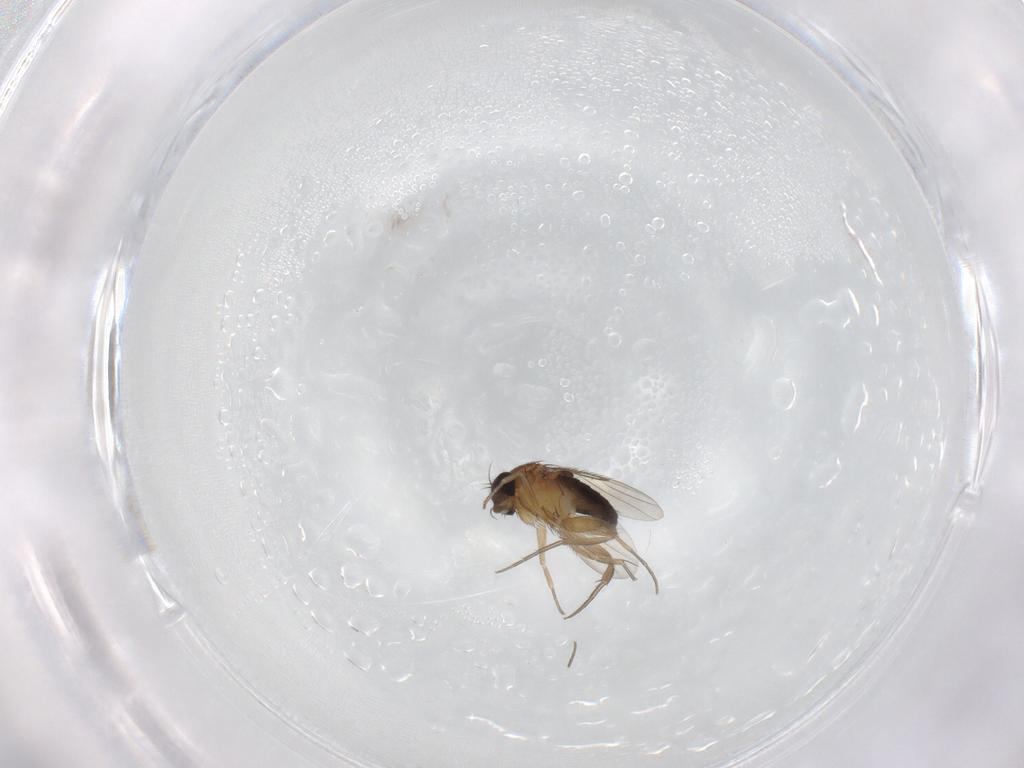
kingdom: Animalia
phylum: Arthropoda
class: Insecta
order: Diptera
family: Phoridae
